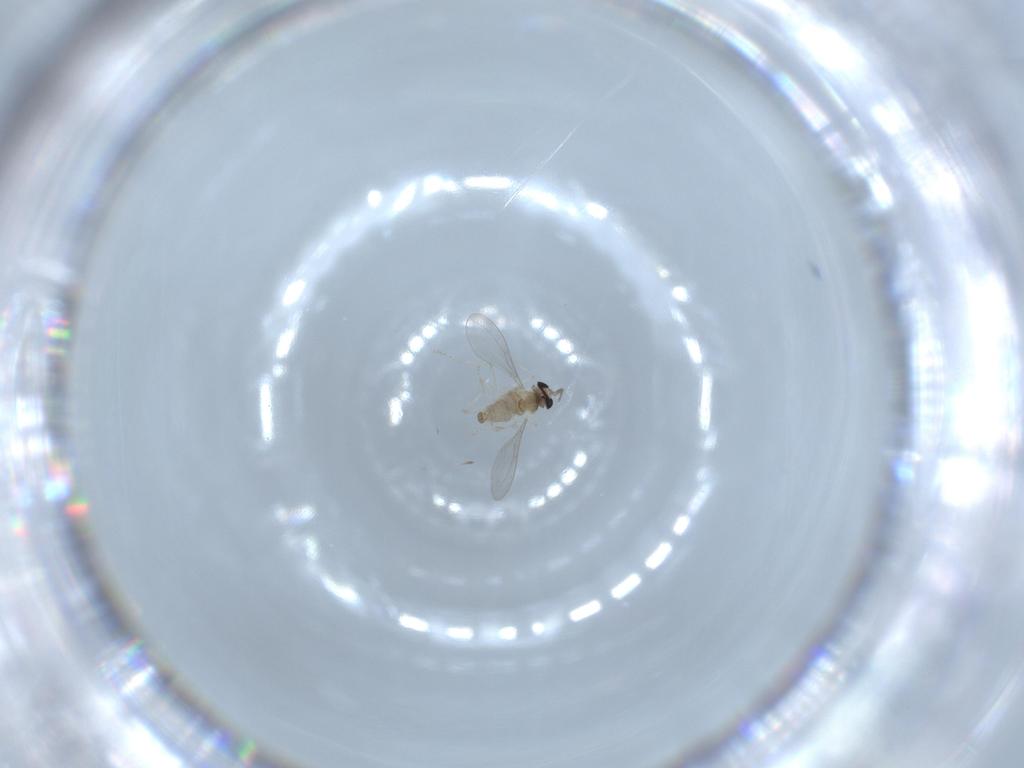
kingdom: Animalia
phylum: Arthropoda
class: Insecta
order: Diptera
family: Cecidomyiidae
